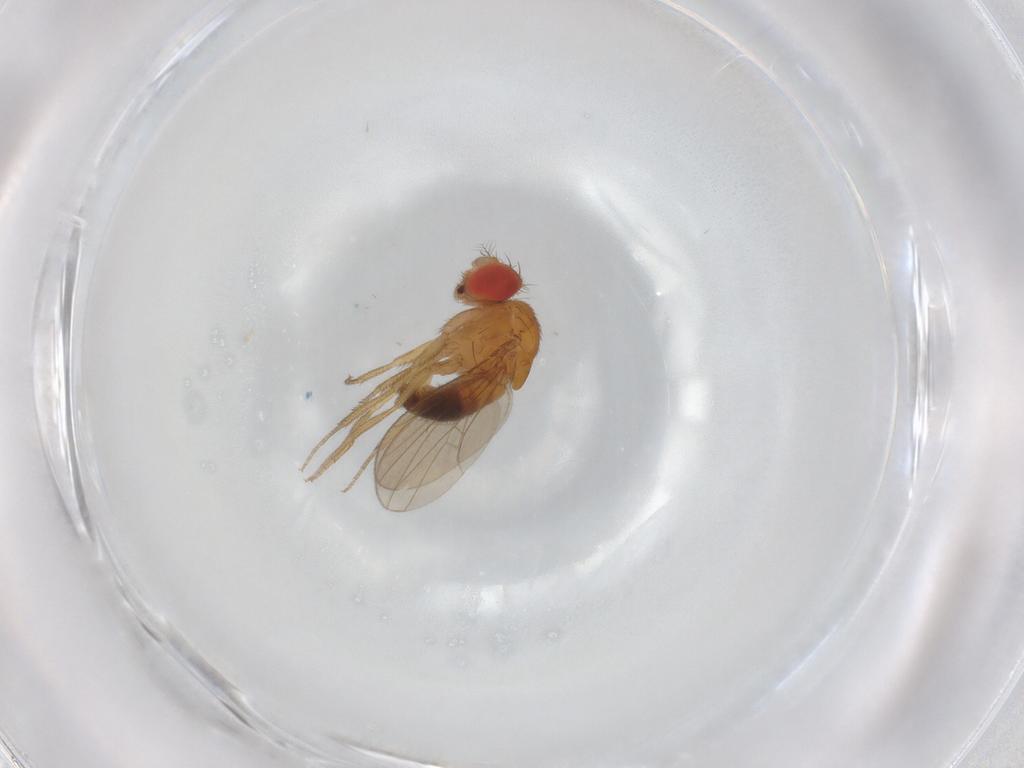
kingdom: Animalia
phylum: Arthropoda
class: Insecta
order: Diptera
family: Drosophilidae
